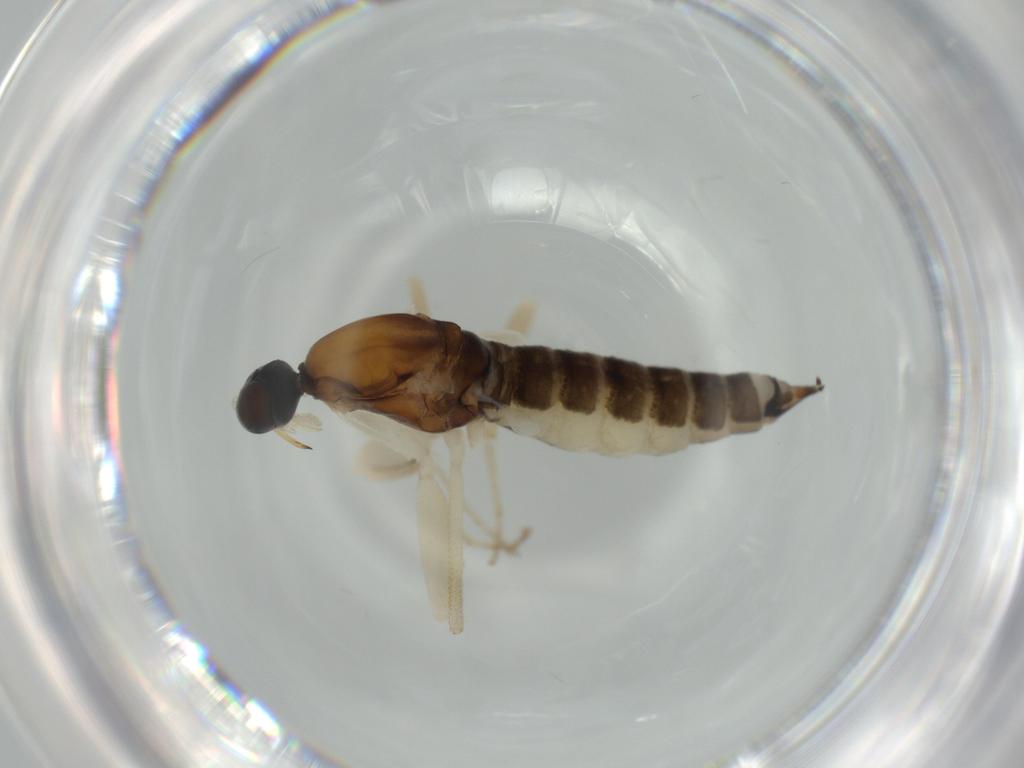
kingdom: Animalia
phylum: Arthropoda
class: Insecta
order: Diptera
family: Empididae
